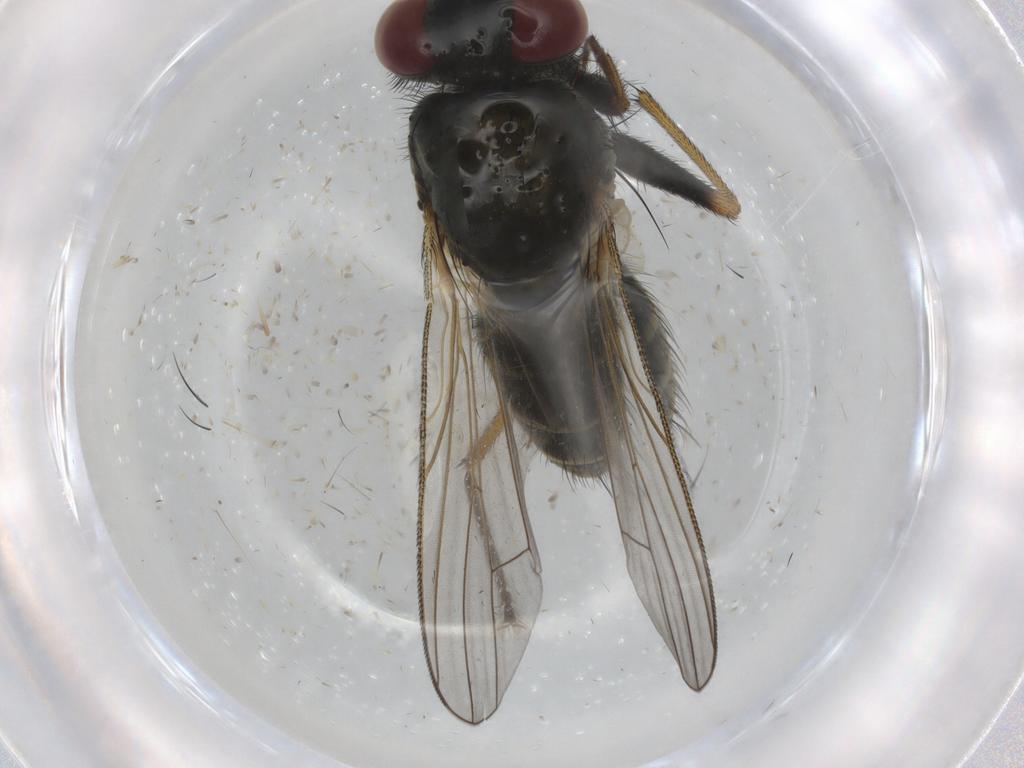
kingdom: Animalia
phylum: Arthropoda
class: Insecta
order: Diptera
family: Muscidae
